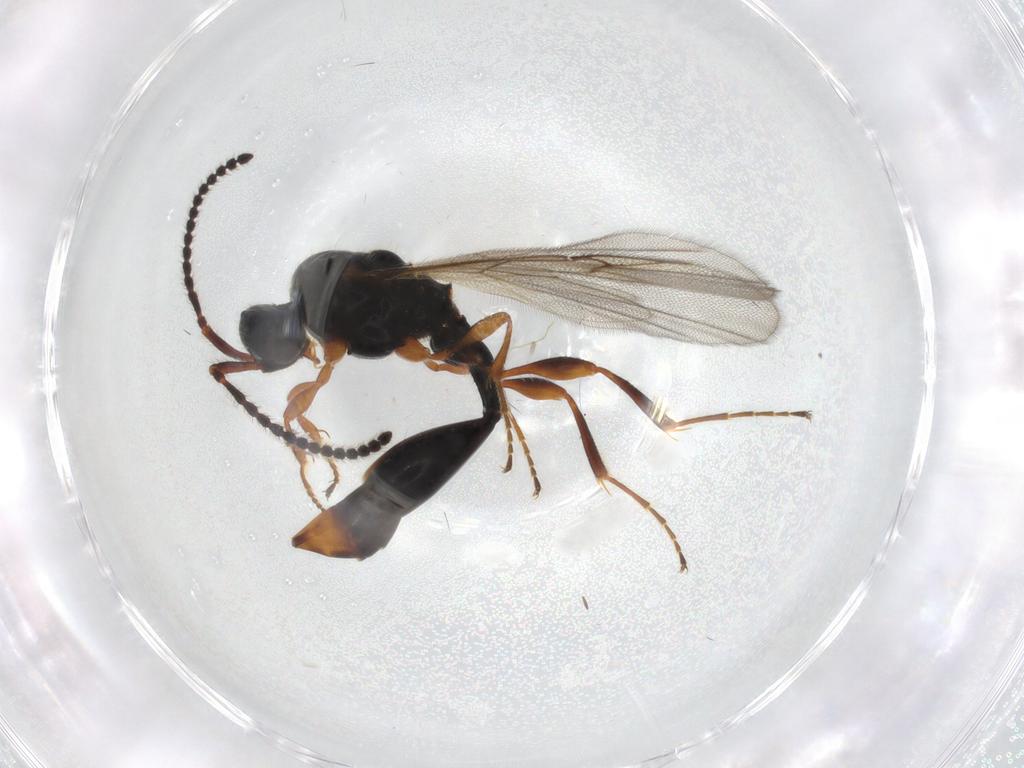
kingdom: Animalia
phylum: Arthropoda
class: Insecta
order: Hymenoptera
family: Diapriidae
